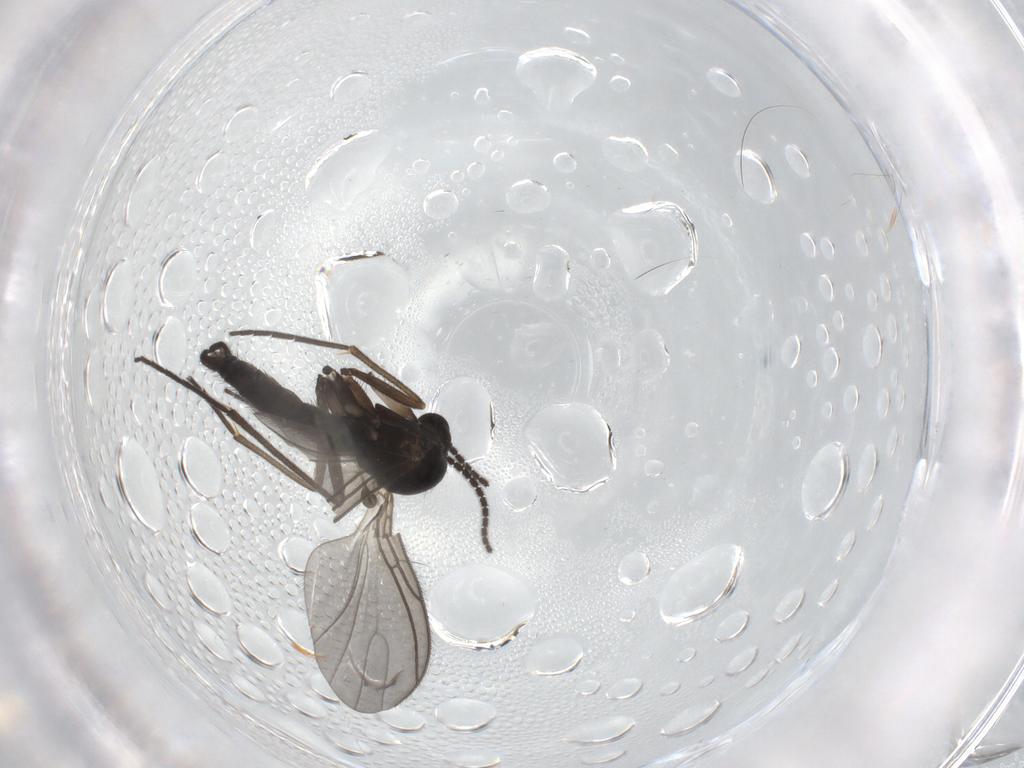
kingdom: Animalia
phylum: Arthropoda
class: Insecta
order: Diptera
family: Sciaridae
